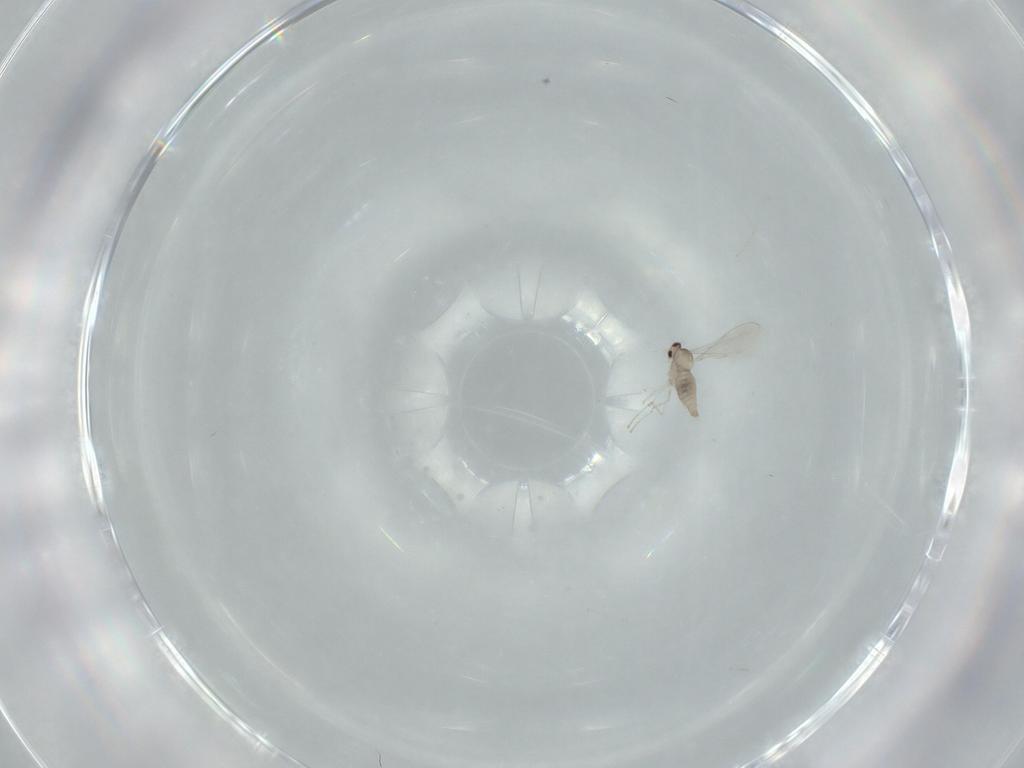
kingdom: Animalia
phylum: Arthropoda
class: Insecta
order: Diptera
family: Cecidomyiidae
